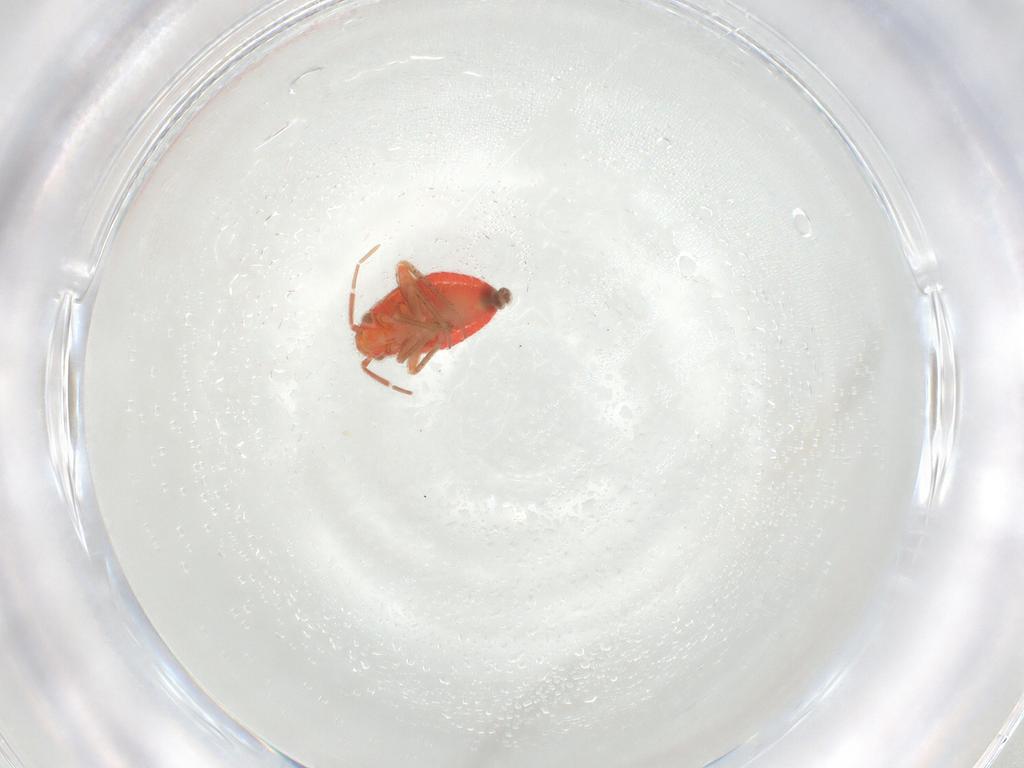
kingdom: Animalia
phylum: Arthropoda
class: Insecta
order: Hemiptera
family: Miridae
